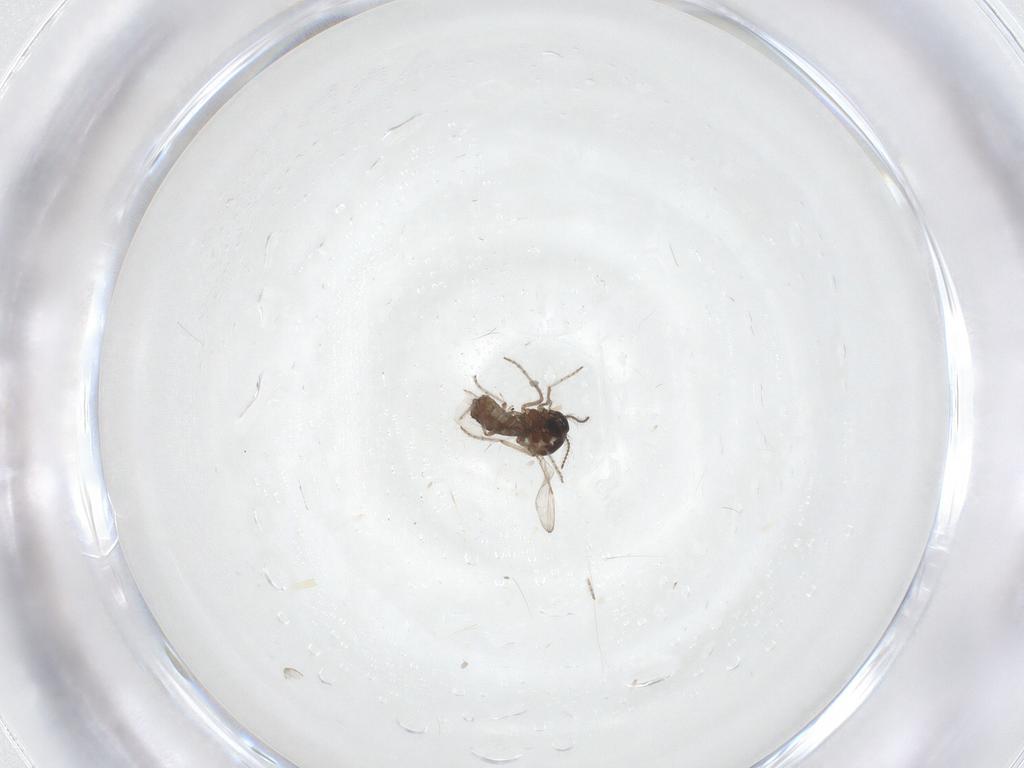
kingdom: Animalia
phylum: Arthropoda
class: Insecta
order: Diptera
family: Ceratopogonidae
